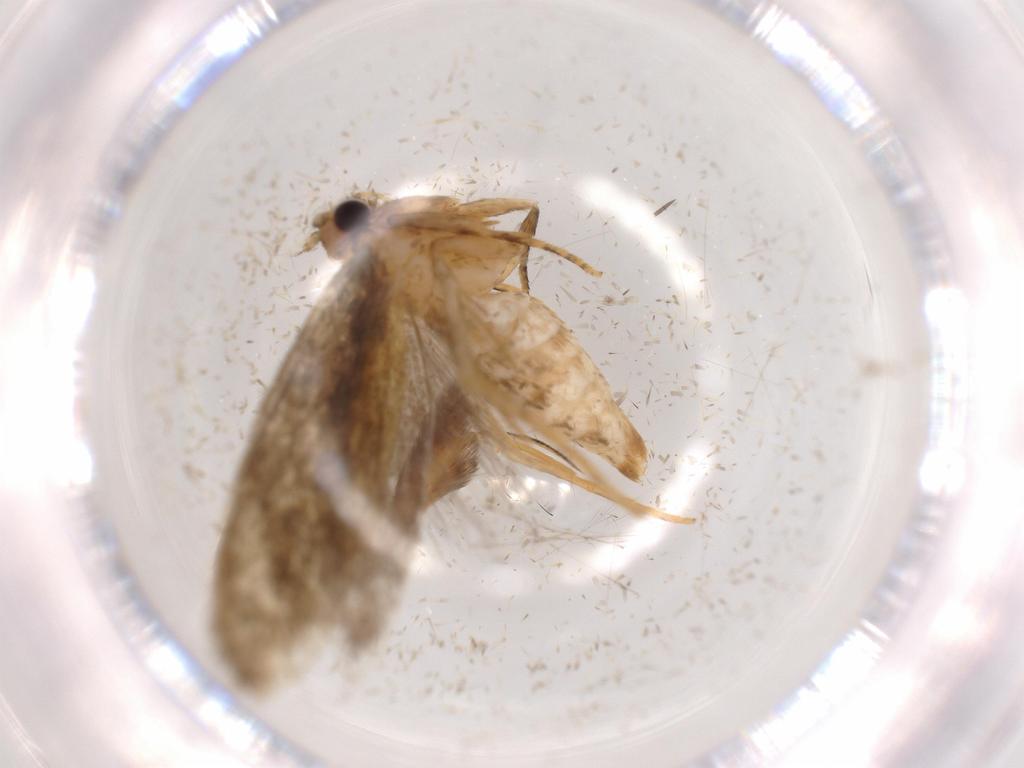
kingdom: Animalia
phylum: Arthropoda
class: Insecta
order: Lepidoptera
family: Tineidae
